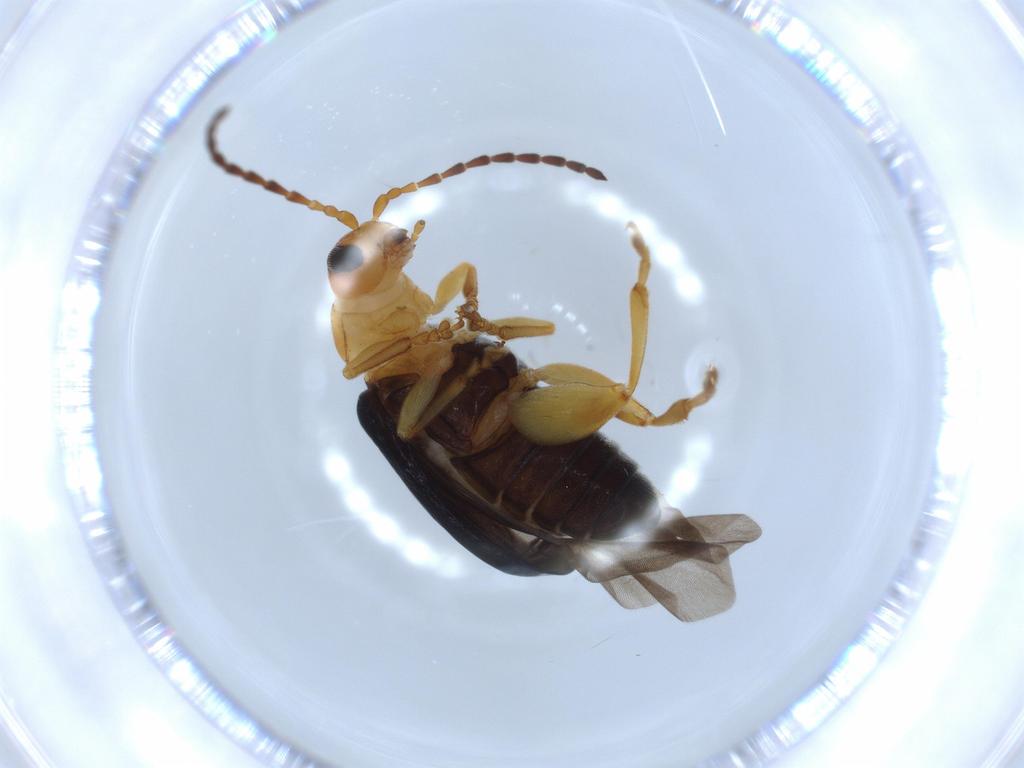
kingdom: Animalia
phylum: Arthropoda
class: Insecta
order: Coleoptera
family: Chrysomelidae
